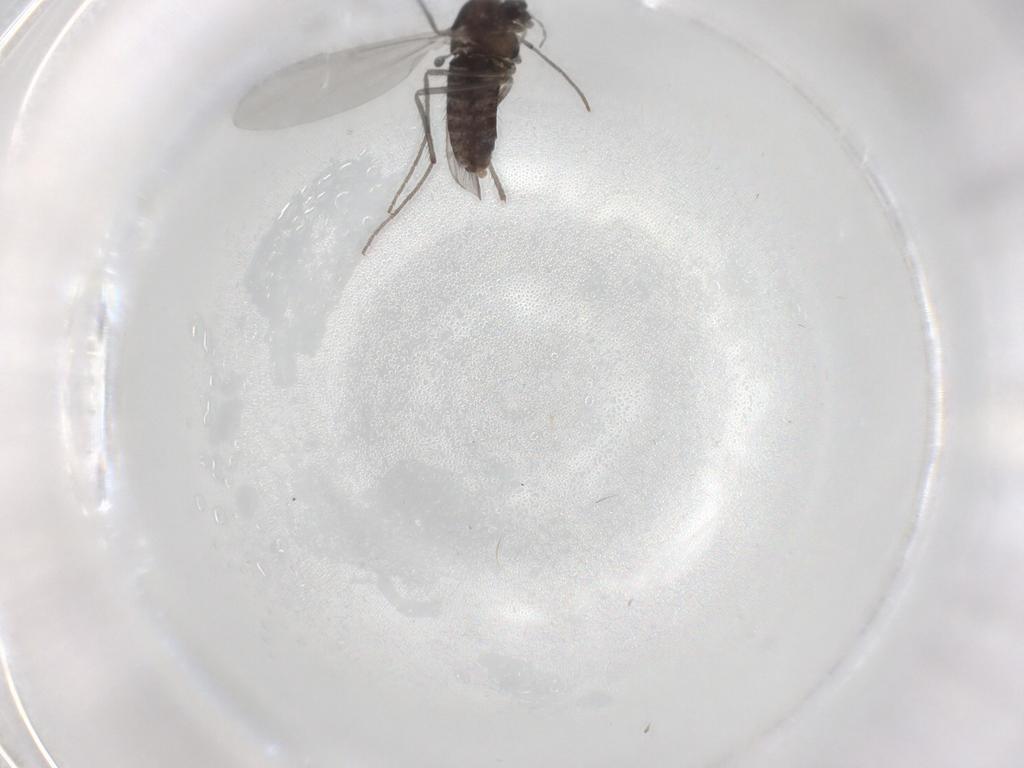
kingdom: Animalia
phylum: Arthropoda
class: Insecta
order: Diptera
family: Chironomidae
